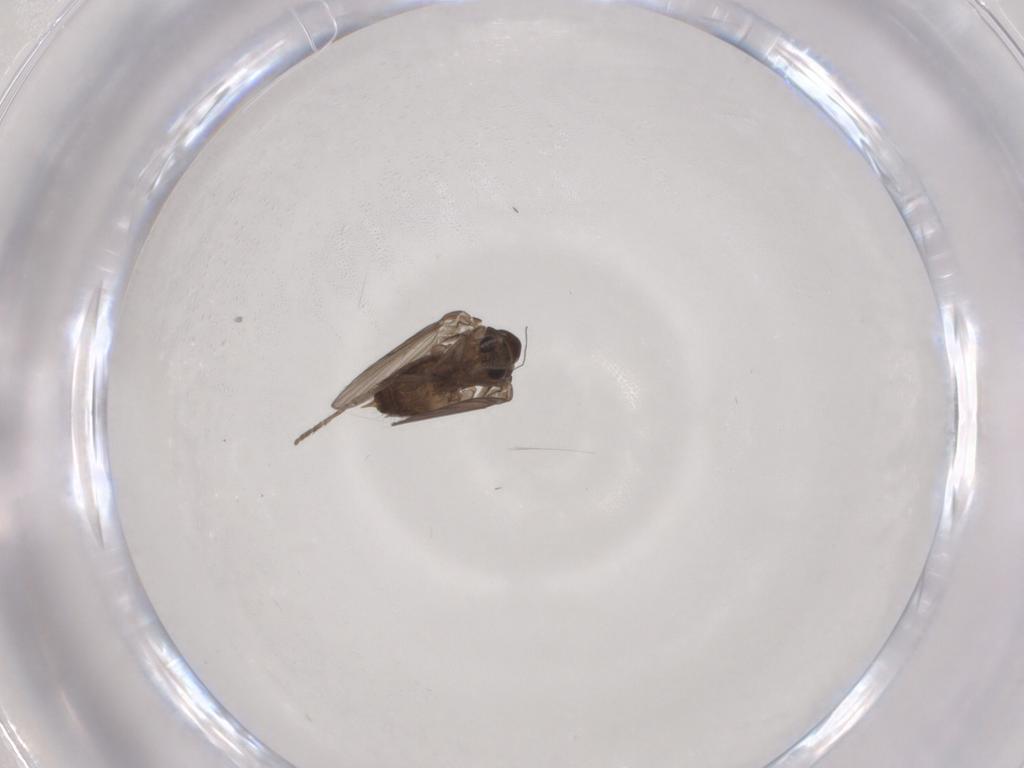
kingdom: Animalia
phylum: Arthropoda
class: Insecta
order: Diptera
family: Psychodidae
